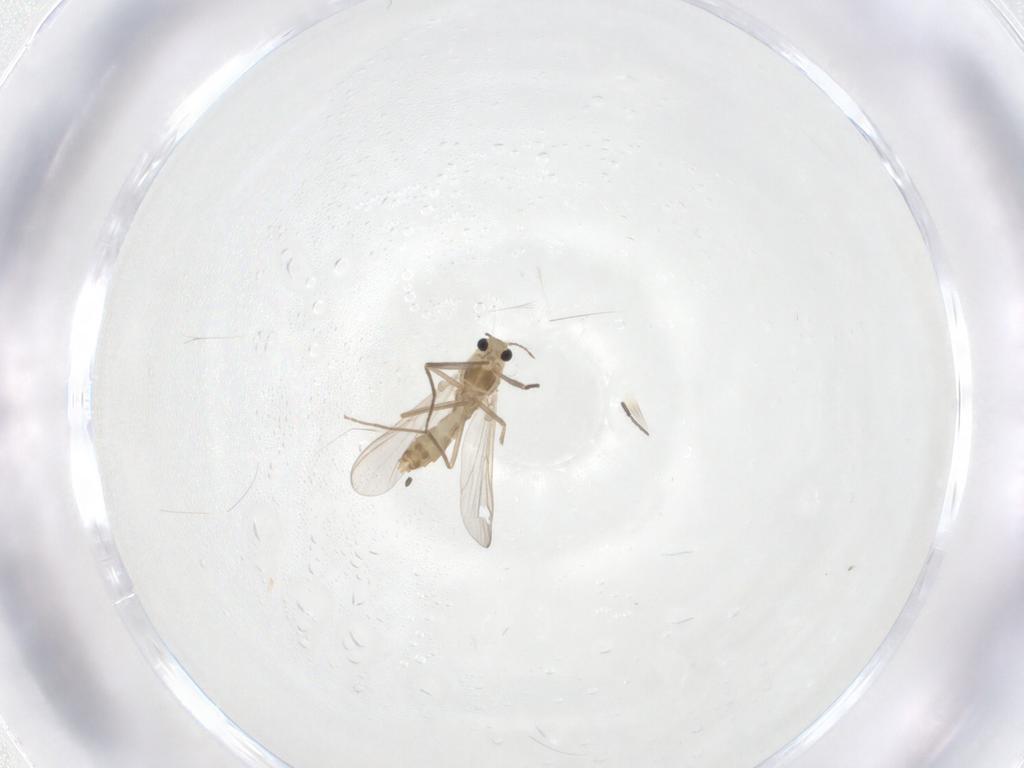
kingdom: Animalia
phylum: Arthropoda
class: Insecta
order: Diptera
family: Chironomidae
